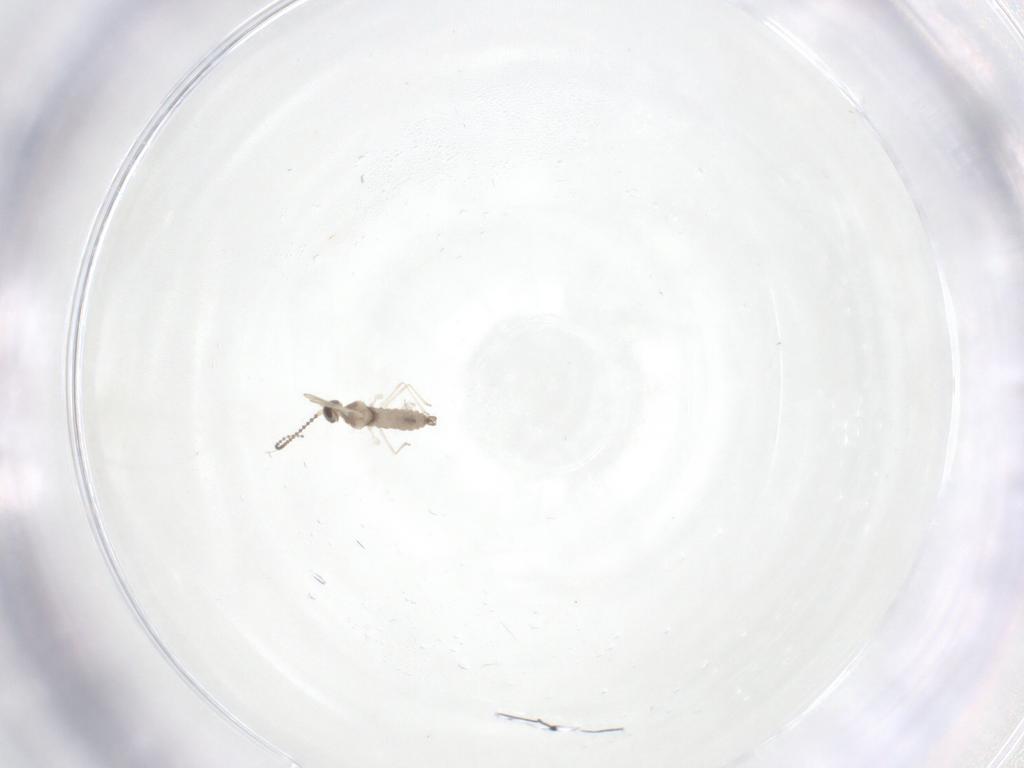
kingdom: Animalia
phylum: Arthropoda
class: Insecta
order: Diptera
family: Cecidomyiidae
